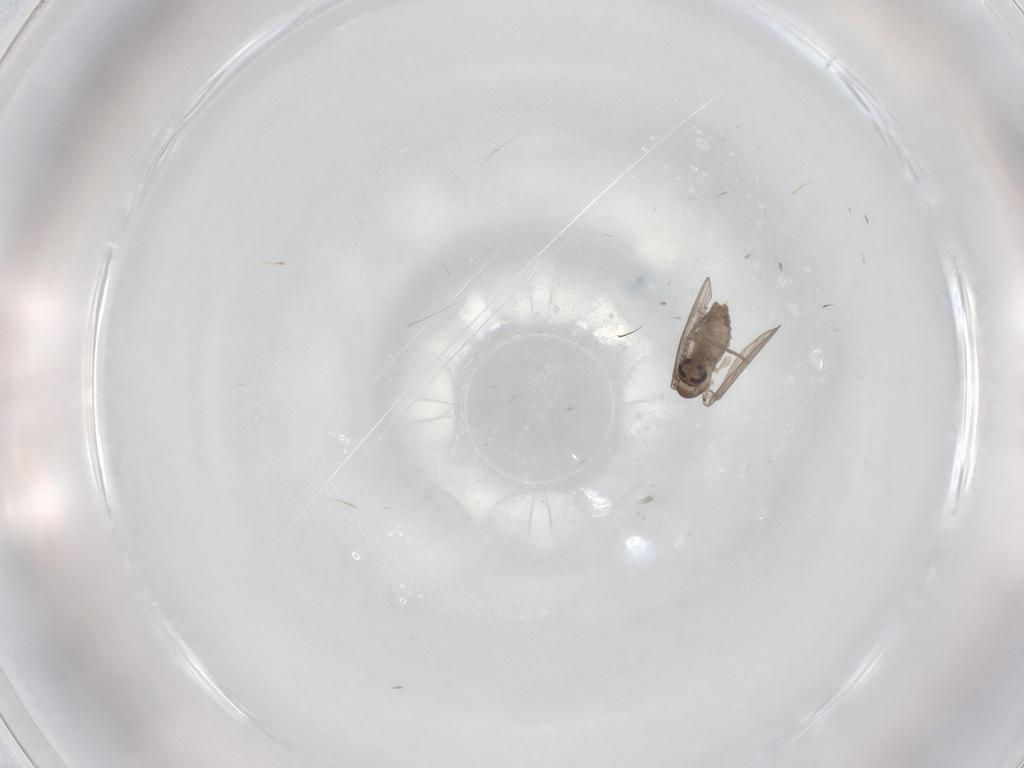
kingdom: Animalia
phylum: Arthropoda
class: Insecta
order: Diptera
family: Psychodidae
